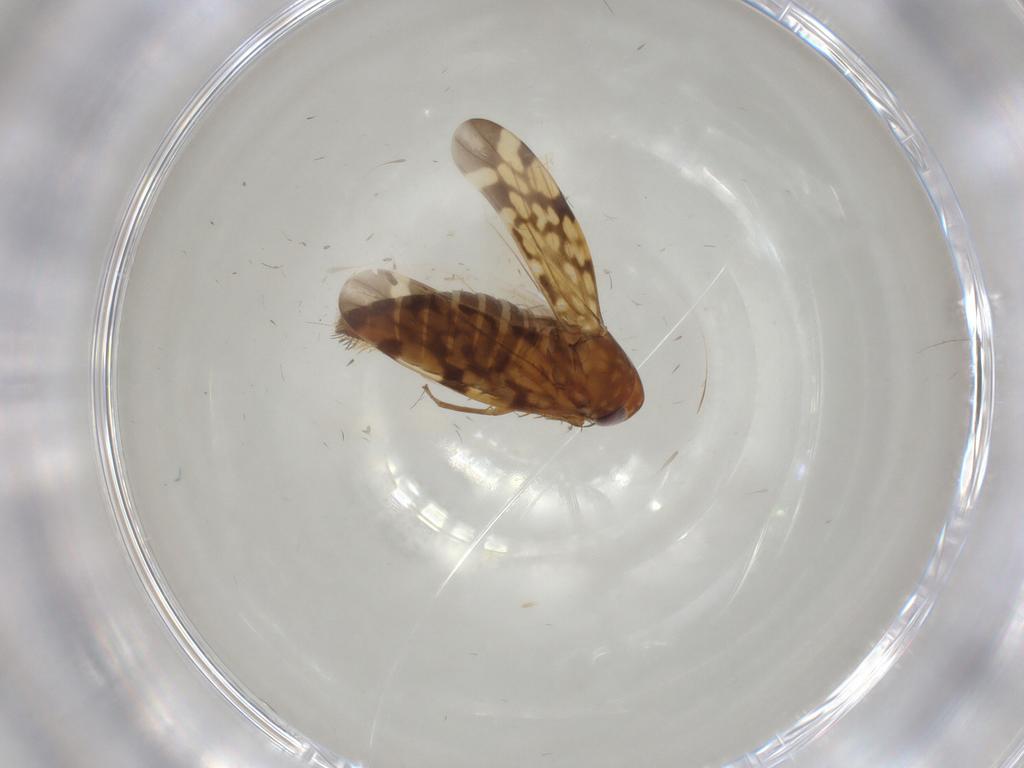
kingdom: Animalia
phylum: Arthropoda
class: Insecta
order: Hemiptera
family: Cicadellidae
